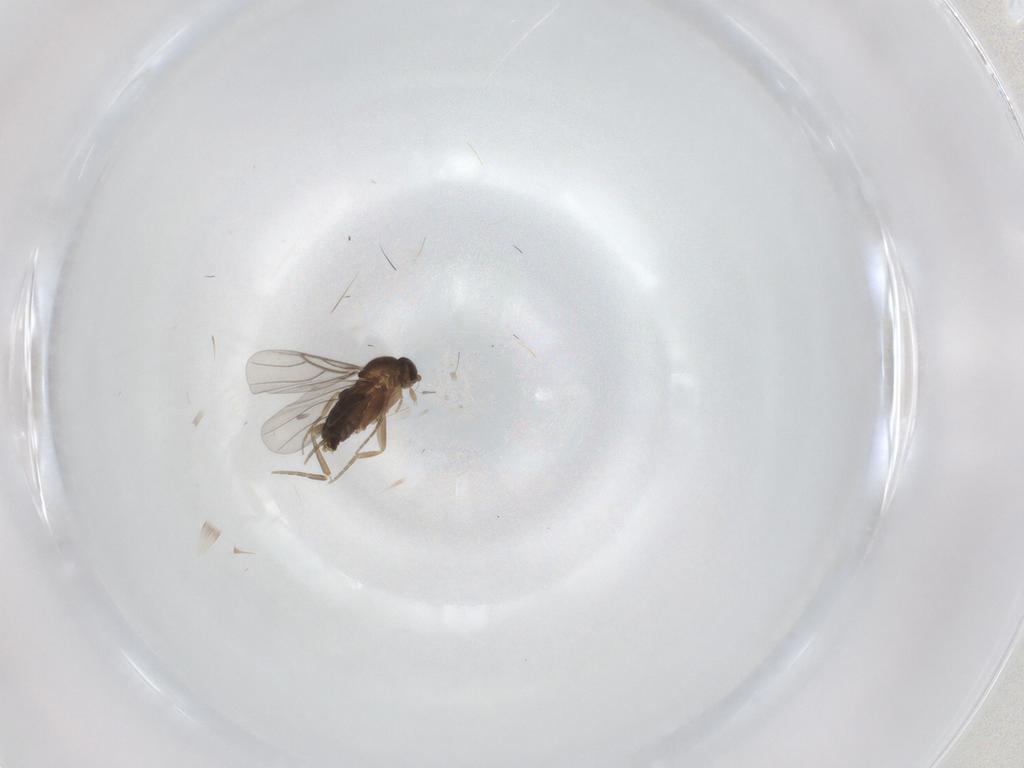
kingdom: Animalia
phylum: Arthropoda
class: Insecta
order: Diptera
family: Phoridae
